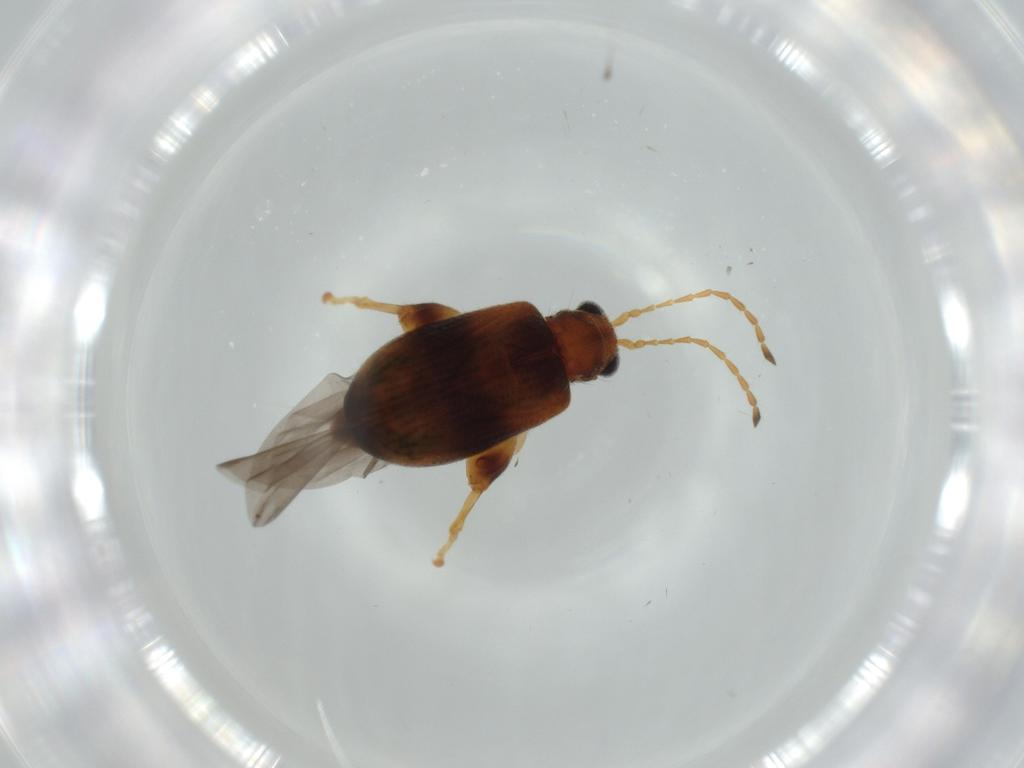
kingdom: Animalia
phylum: Arthropoda
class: Insecta
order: Coleoptera
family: Chrysomelidae
